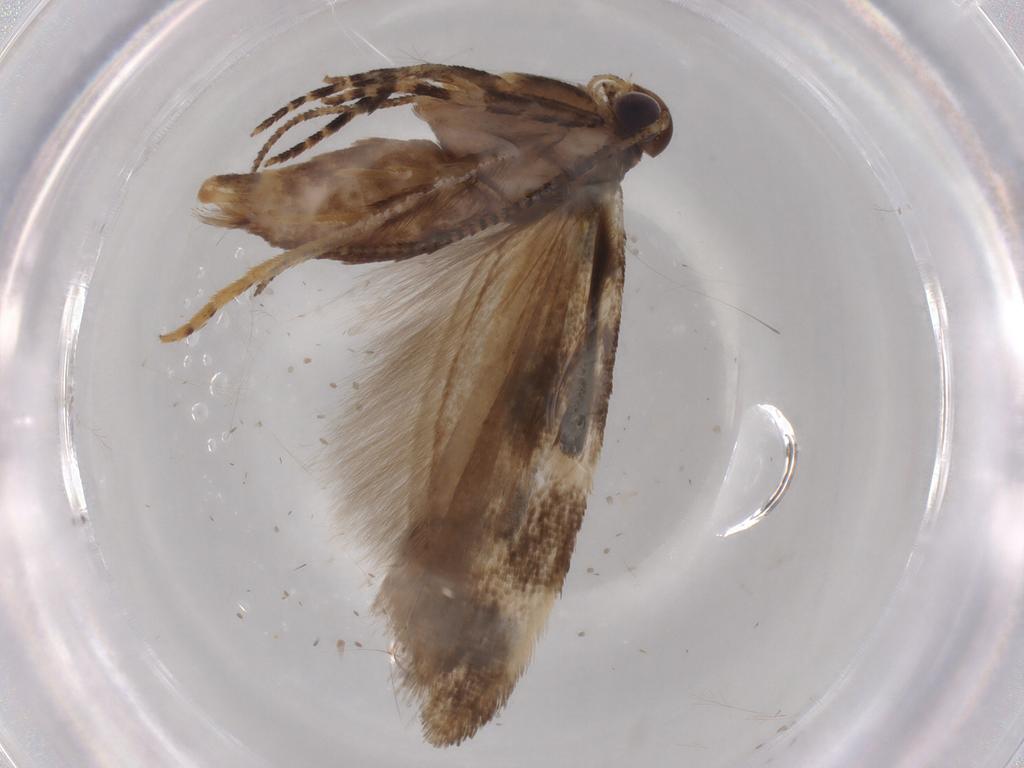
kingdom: Animalia
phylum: Arthropoda
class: Insecta
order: Lepidoptera
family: Gelechiidae
